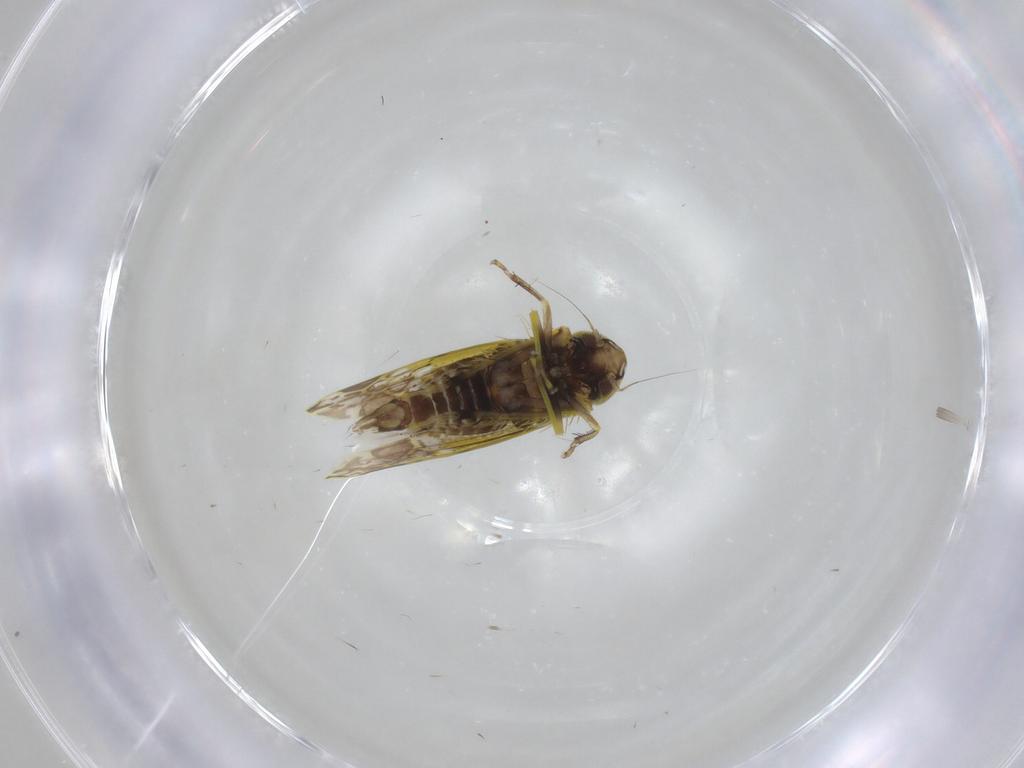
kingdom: Animalia
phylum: Arthropoda
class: Insecta
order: Hemiptera
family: Cicadellidae
